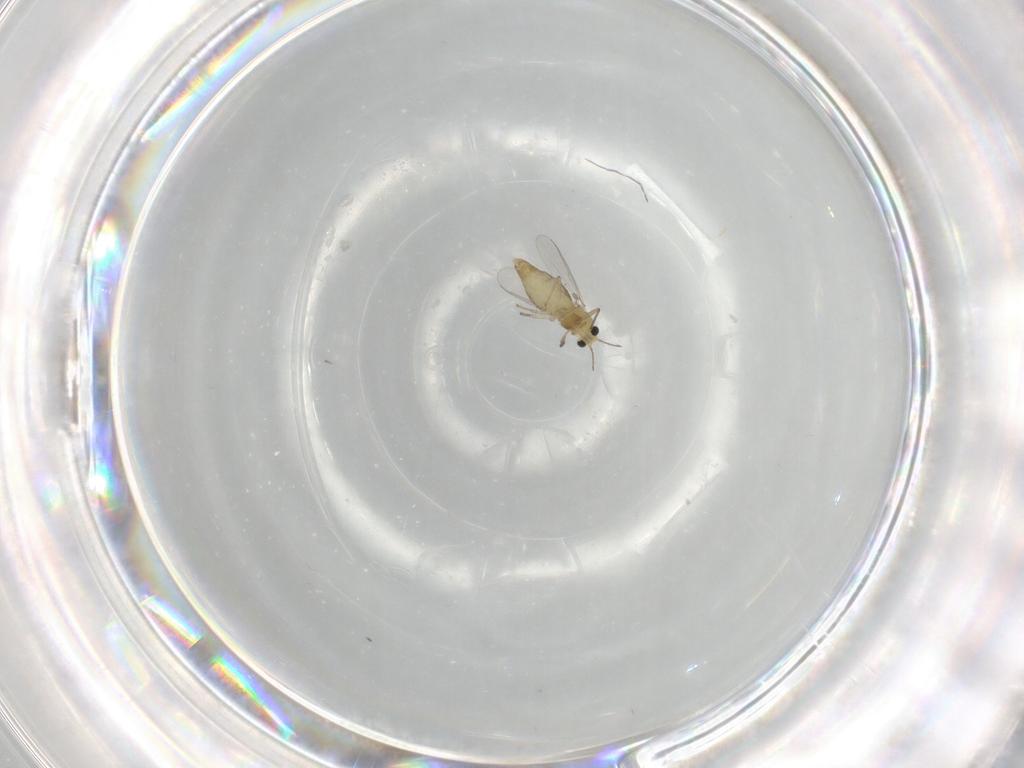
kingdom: Animalia
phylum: Arthropoda
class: Insecta
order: Diptera
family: Chironomidae
